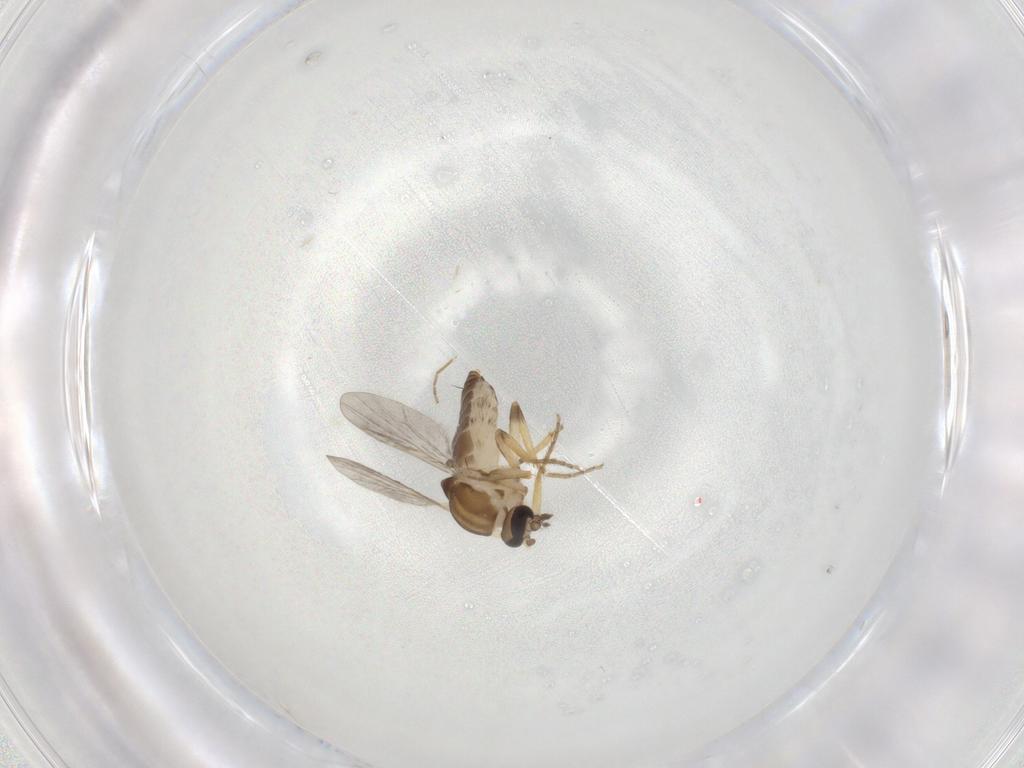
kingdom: Animalia
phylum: Arthropoda
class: Insecta
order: Diptera
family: Ceratopogonidae
